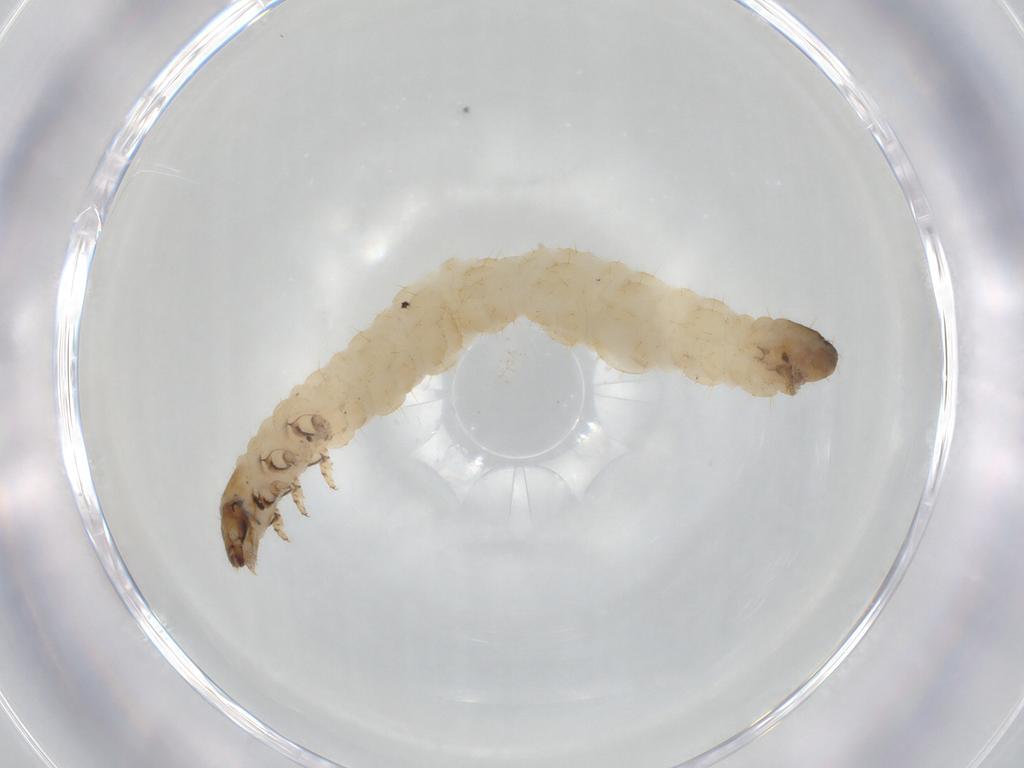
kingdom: Animalia
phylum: Arthropoda
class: Insecta
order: Coleoptera
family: Chrysomelidae
